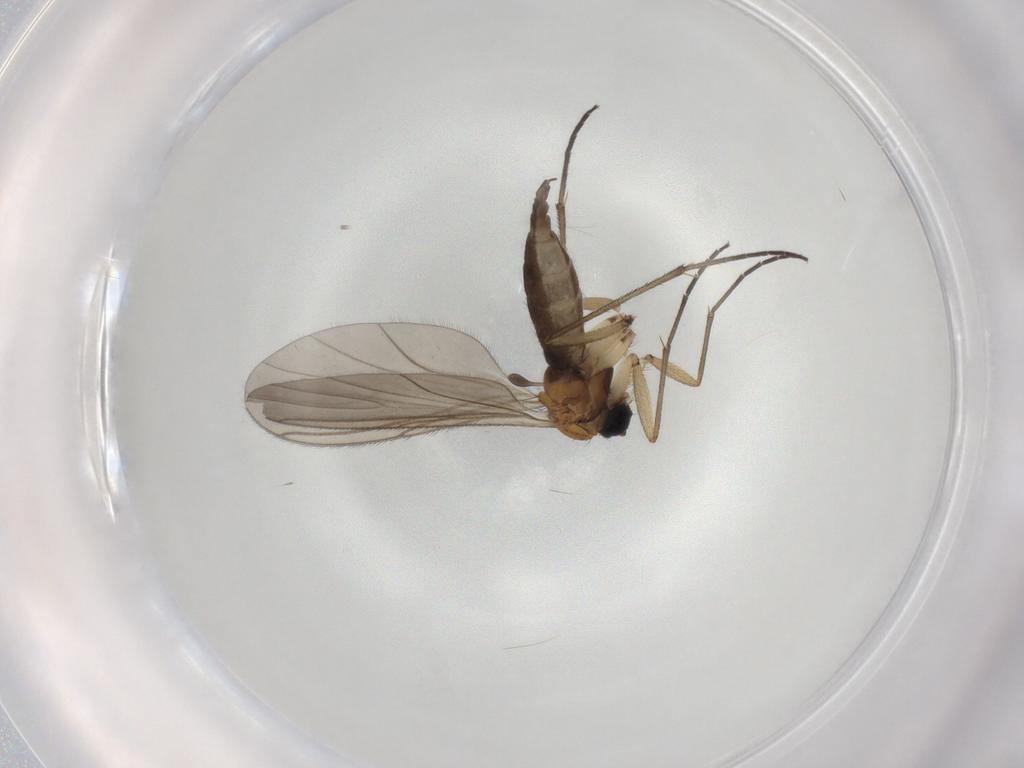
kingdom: Animalia
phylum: Arthropoda
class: Insecta
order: Diptera
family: Muscidae
